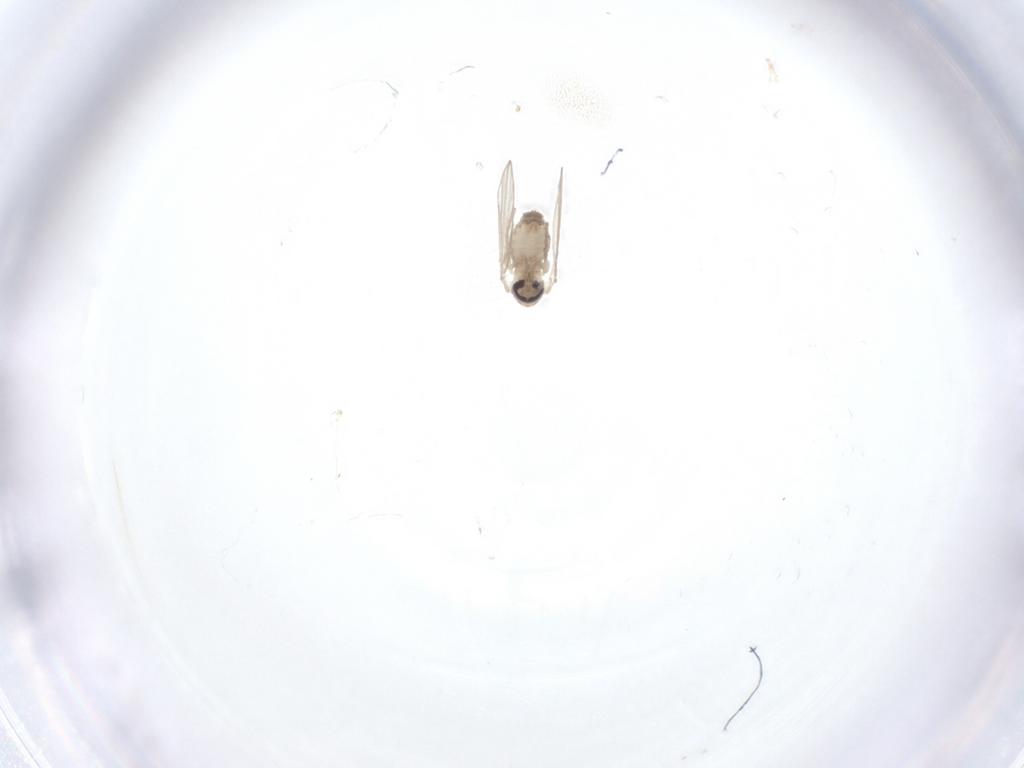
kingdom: Animalia
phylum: Arthropoda
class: Insecta
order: Diptera
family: Psychodidae
